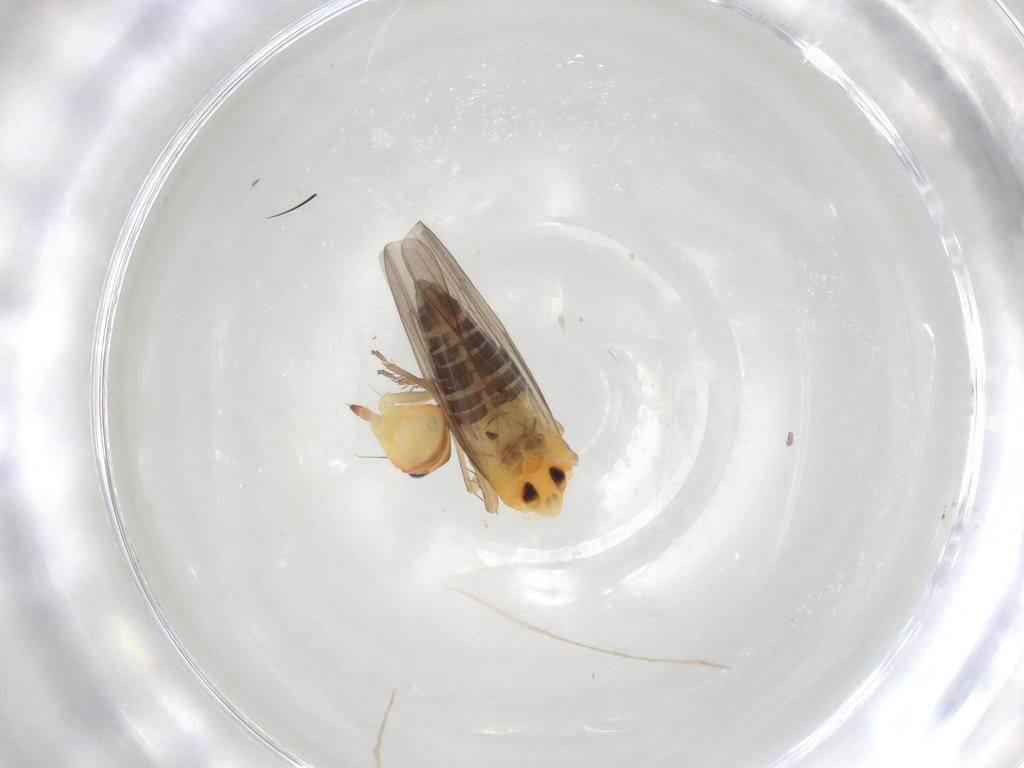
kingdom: Animalia
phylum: Arthropoda
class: Insecta
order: Hemiptera
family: Cicadellidae
